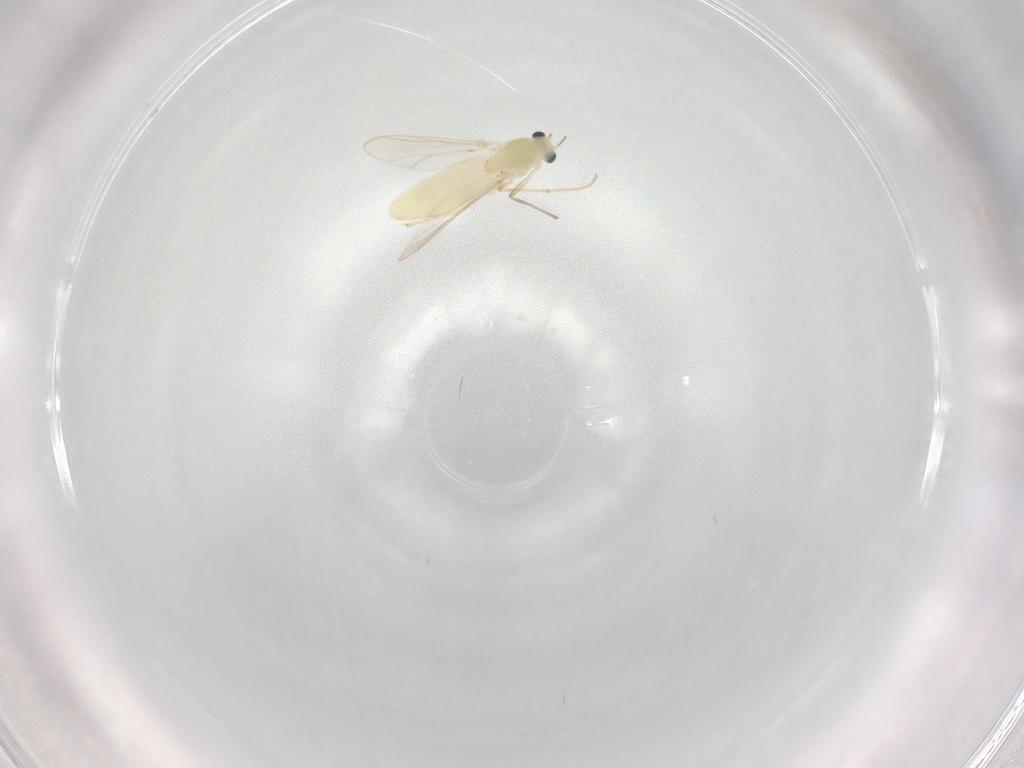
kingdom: Animalia
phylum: Arthropoda
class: Insecta
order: Diptera
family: Chironomidae
